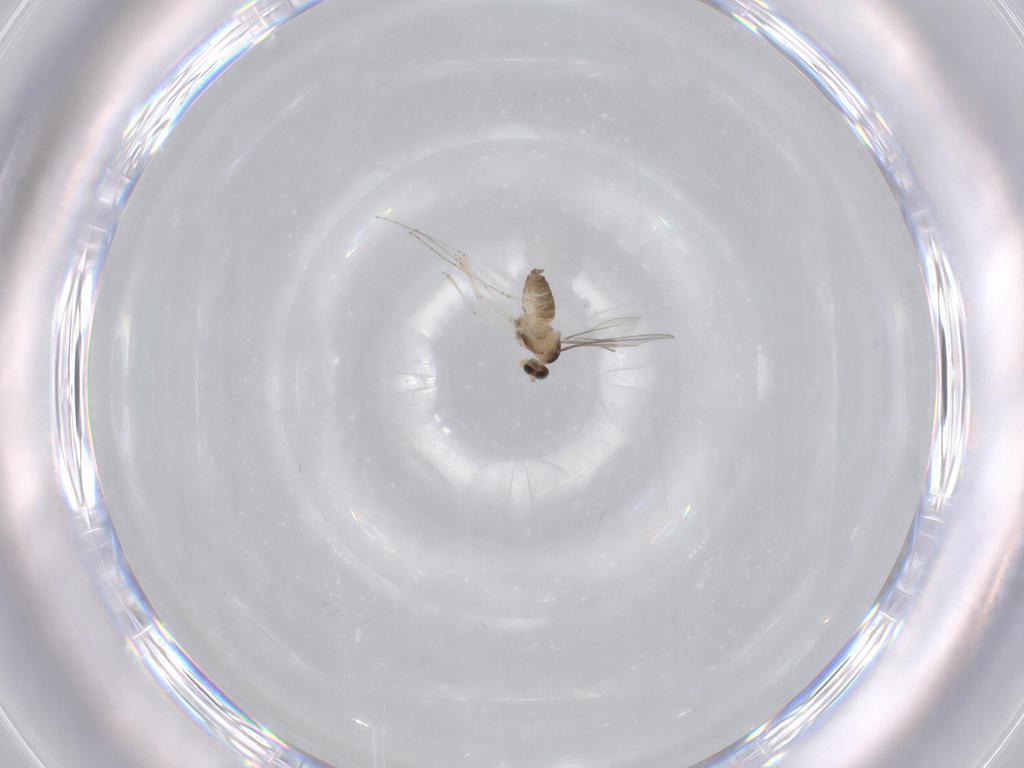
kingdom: Animalia
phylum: Arthropoda
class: Insecta
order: Diptera
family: Cecidomyiidae
